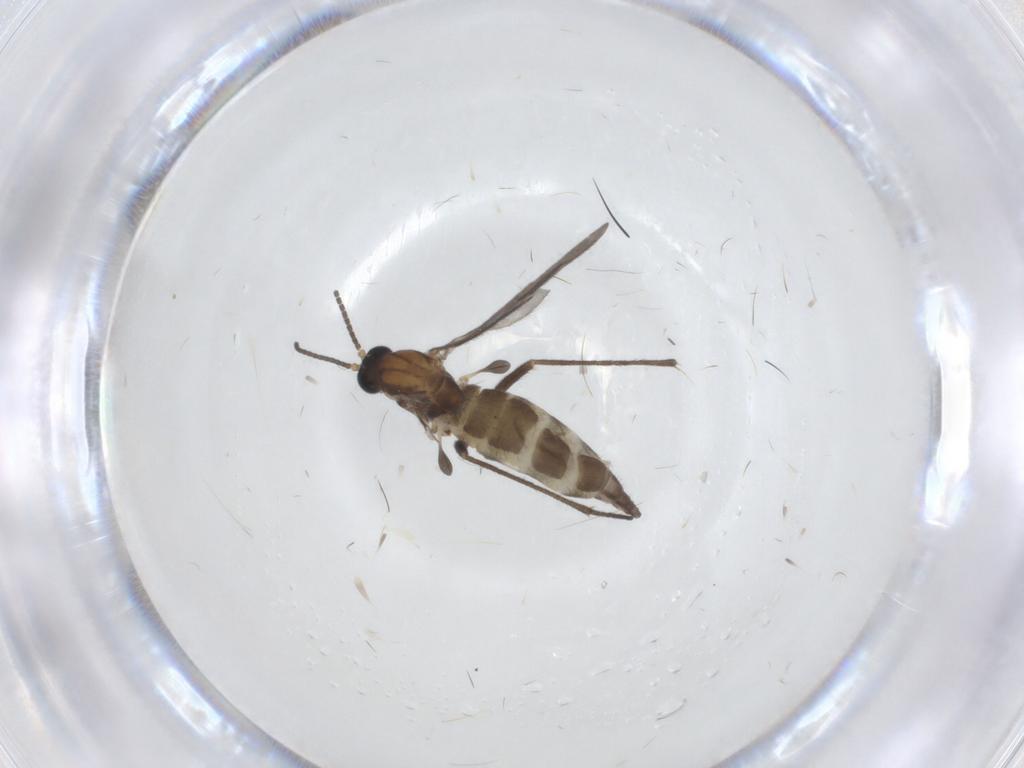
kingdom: Animalia
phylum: Arthropoda
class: Insecta
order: Diptera
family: Sciaridae
